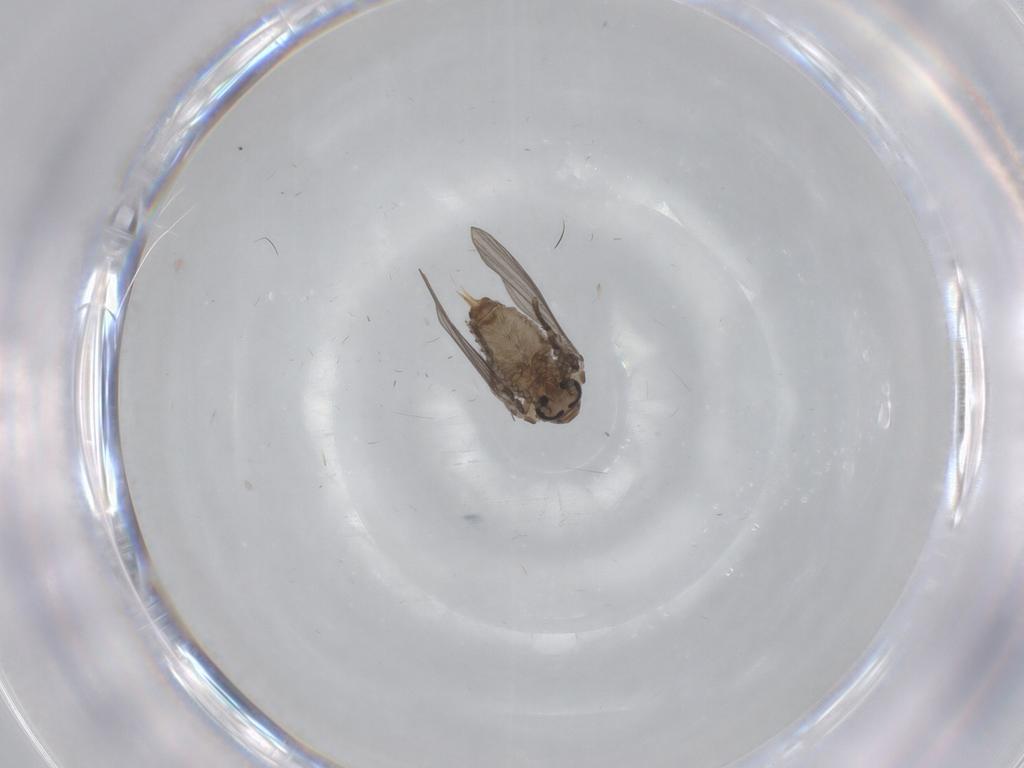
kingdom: Animalia
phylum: Arthropoda
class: Insecta
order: Diptera
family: Psychodidae
